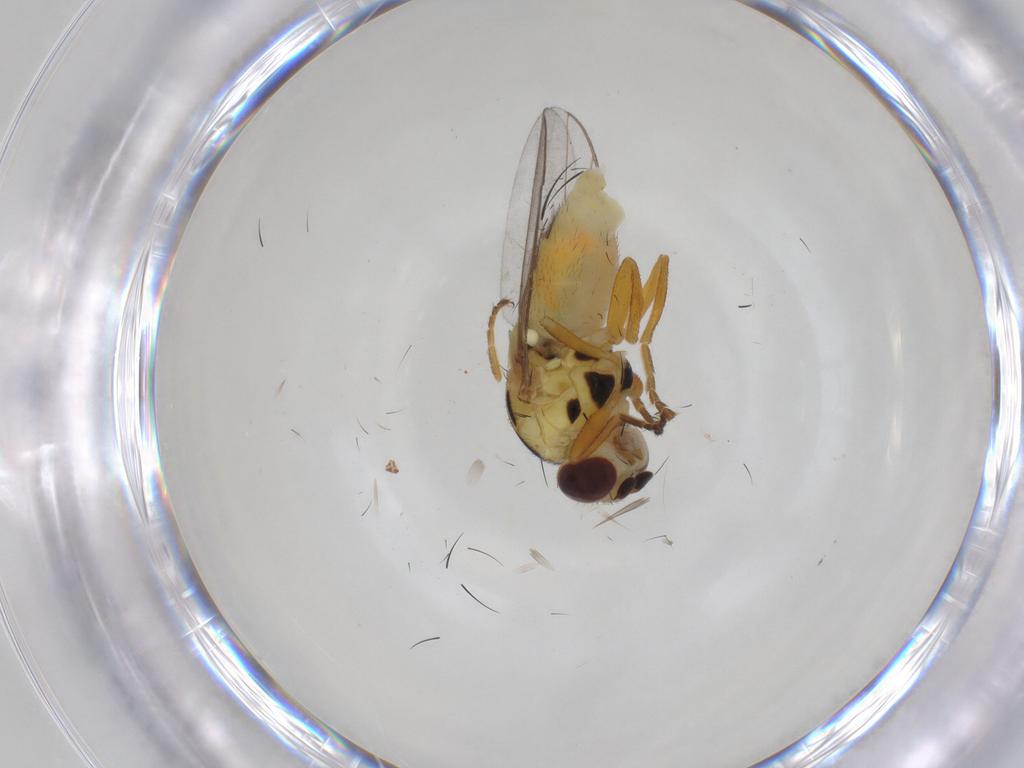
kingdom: Animalia
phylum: Arthropoda
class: Insecta
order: Diptera
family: Chloropidae
